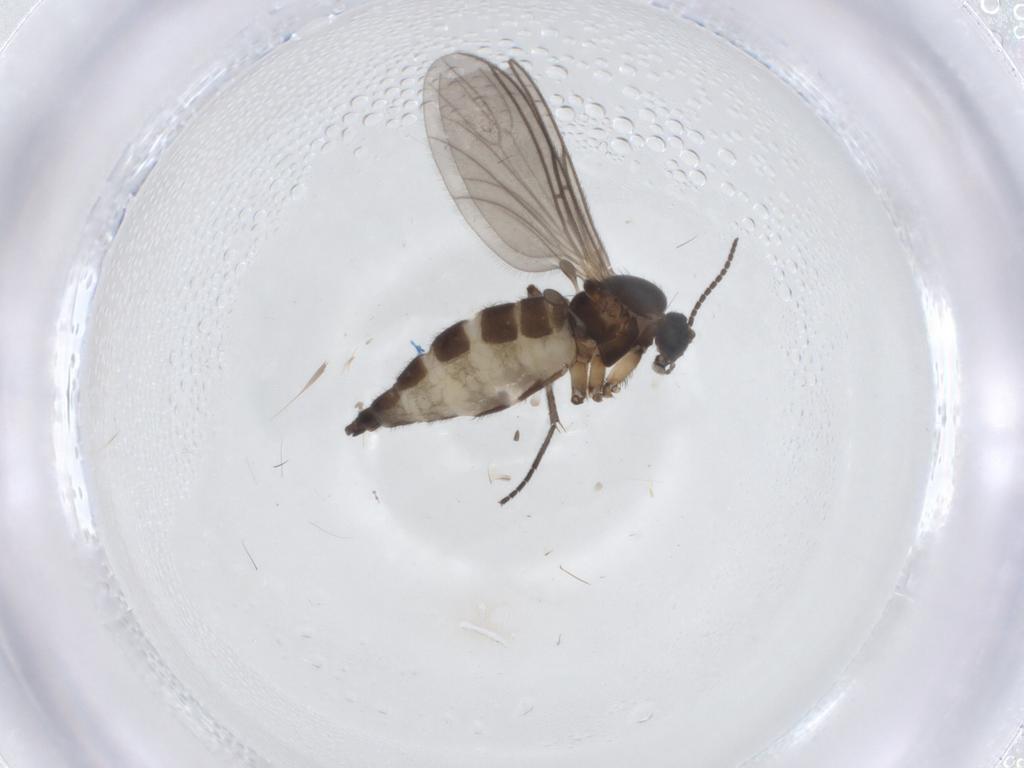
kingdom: Animalia
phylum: Arthropoda
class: Insecta
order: Diptera
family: Sciaridae
